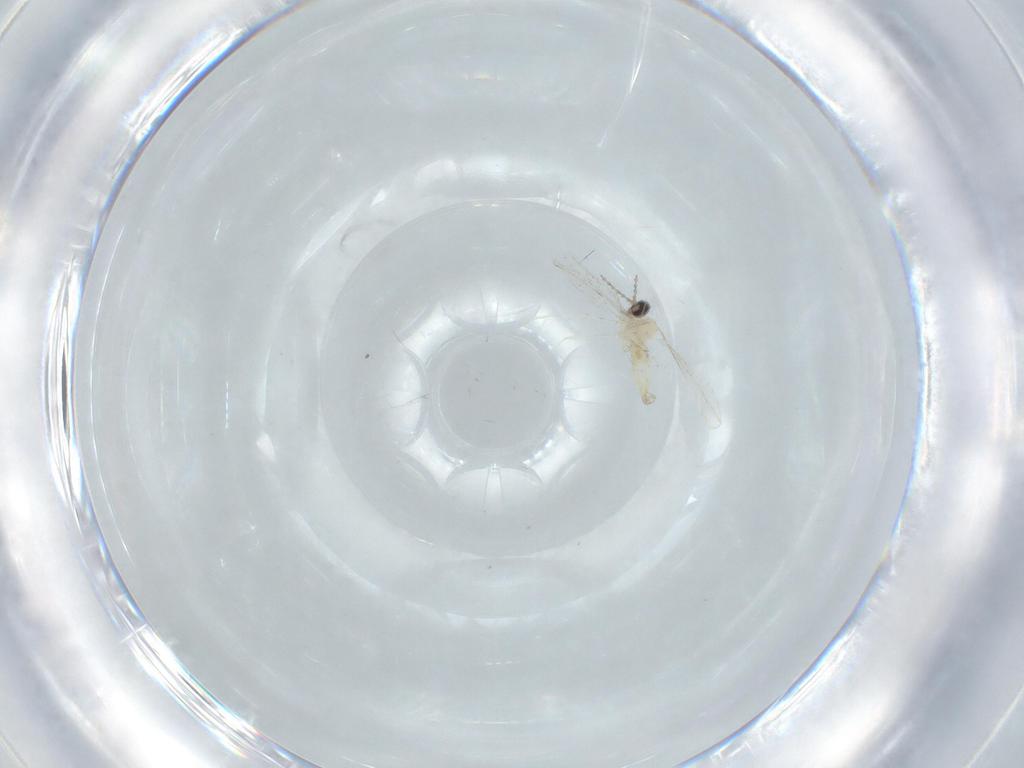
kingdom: Animalia
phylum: Arthropoda
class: Insecta
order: Diptera
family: Cecidomyiidae
